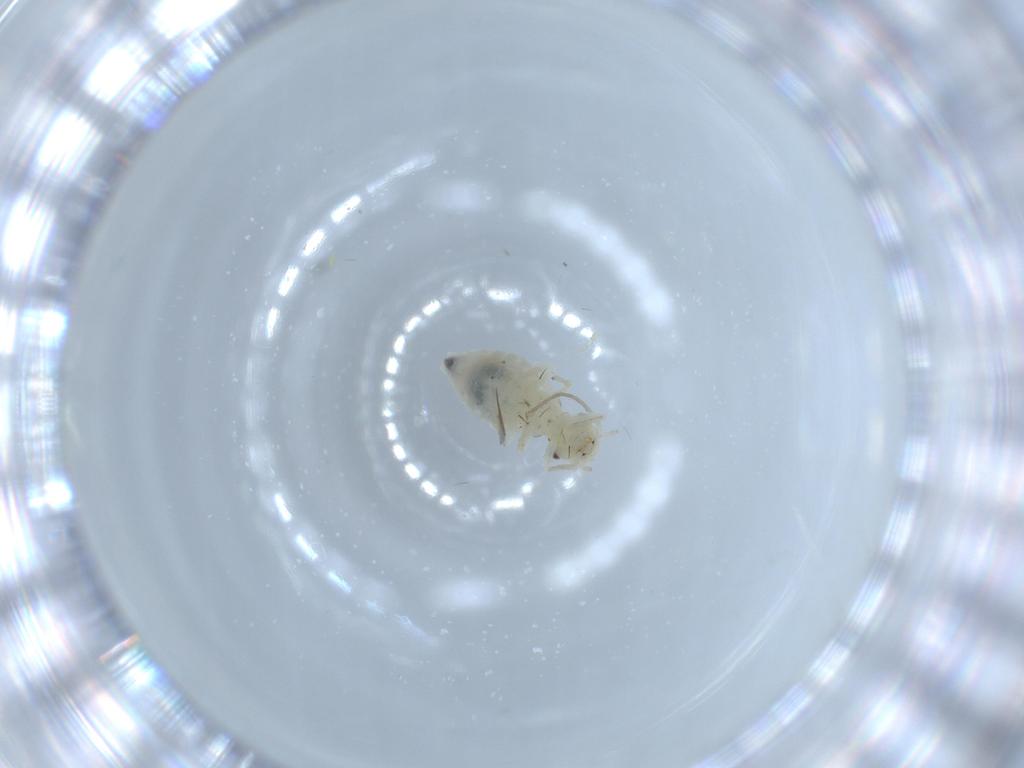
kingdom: Animalia
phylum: Arthropoda
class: Insecta
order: Psocodea
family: Caeciliusidae
